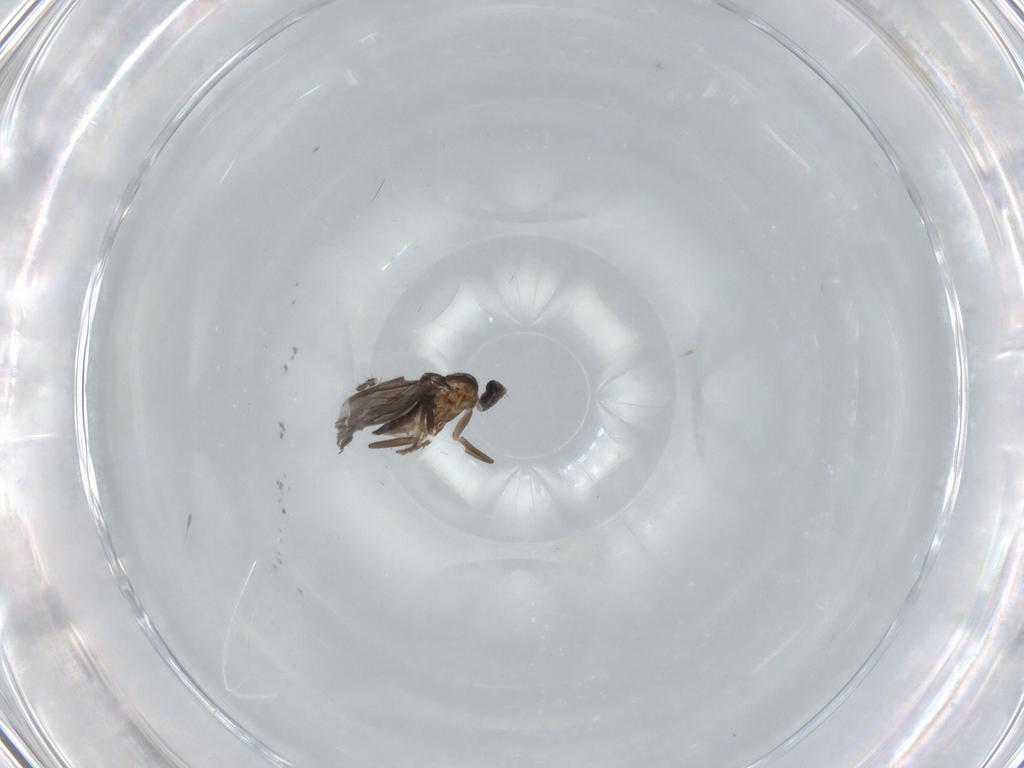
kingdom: Animalia
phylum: Arthropoda
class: Insecta
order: Diptera
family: Limoniidae
